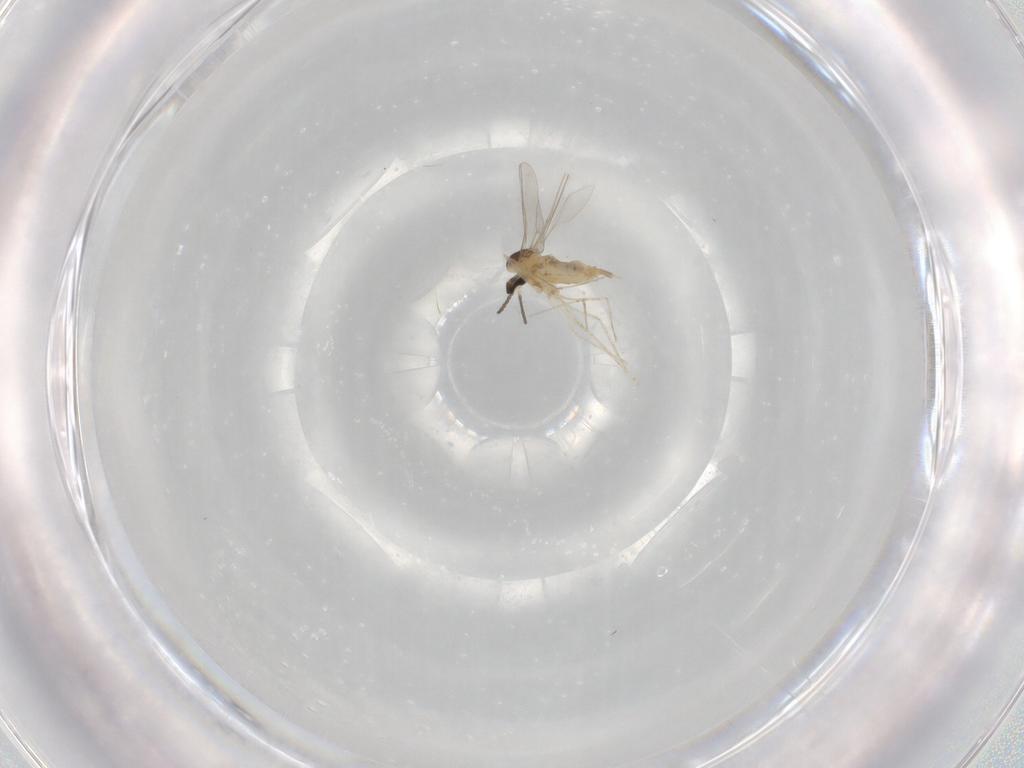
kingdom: Animalia
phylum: Arthropoda
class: Insecta
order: Diptera
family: Cecidomyiidae
